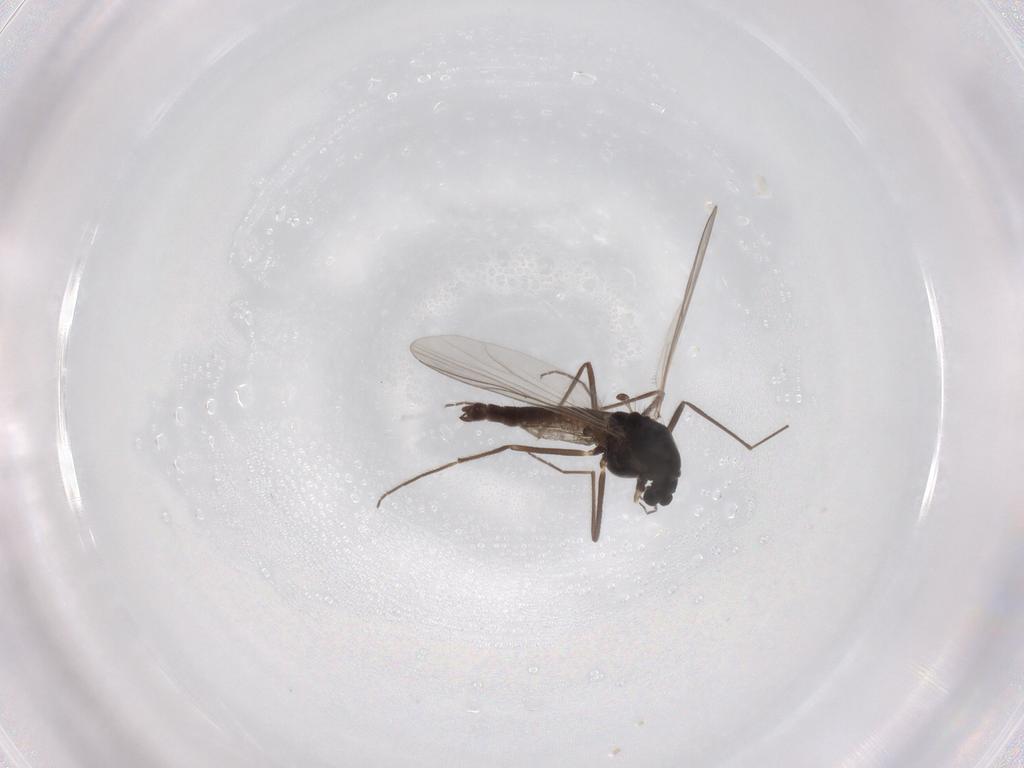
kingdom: Animalia
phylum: Arthropoda
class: Insecta
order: Diptera
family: Chironomidae
